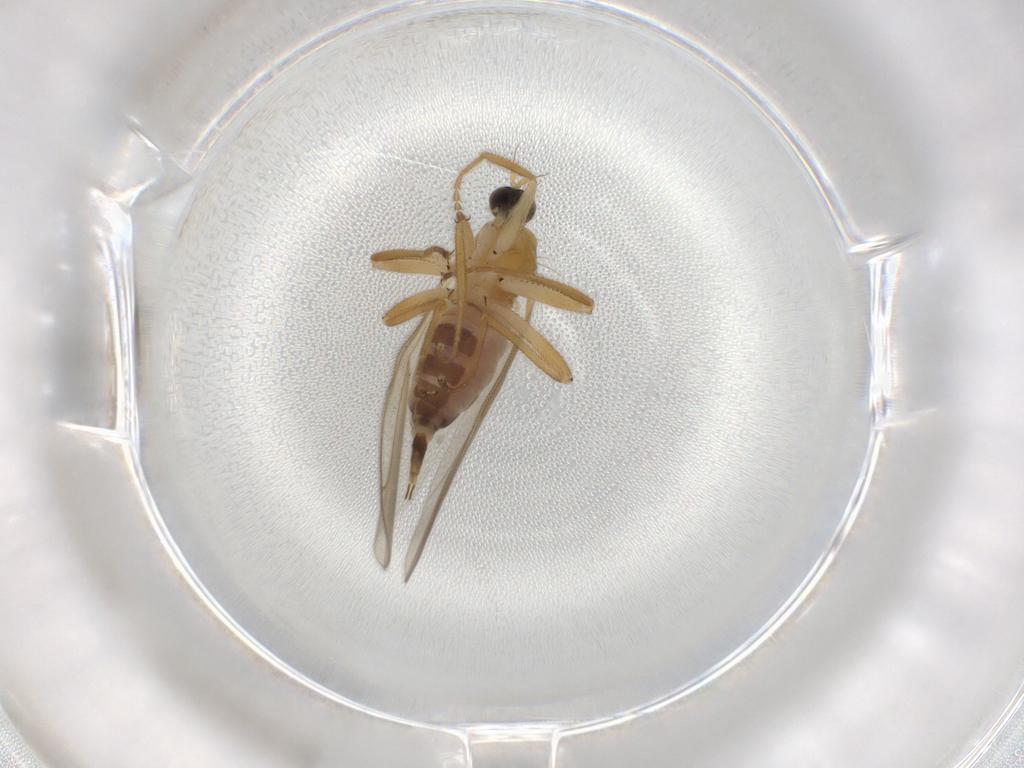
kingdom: Animalia
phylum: Arthropoda
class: Insecta
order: Diptera
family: Hybotidae
